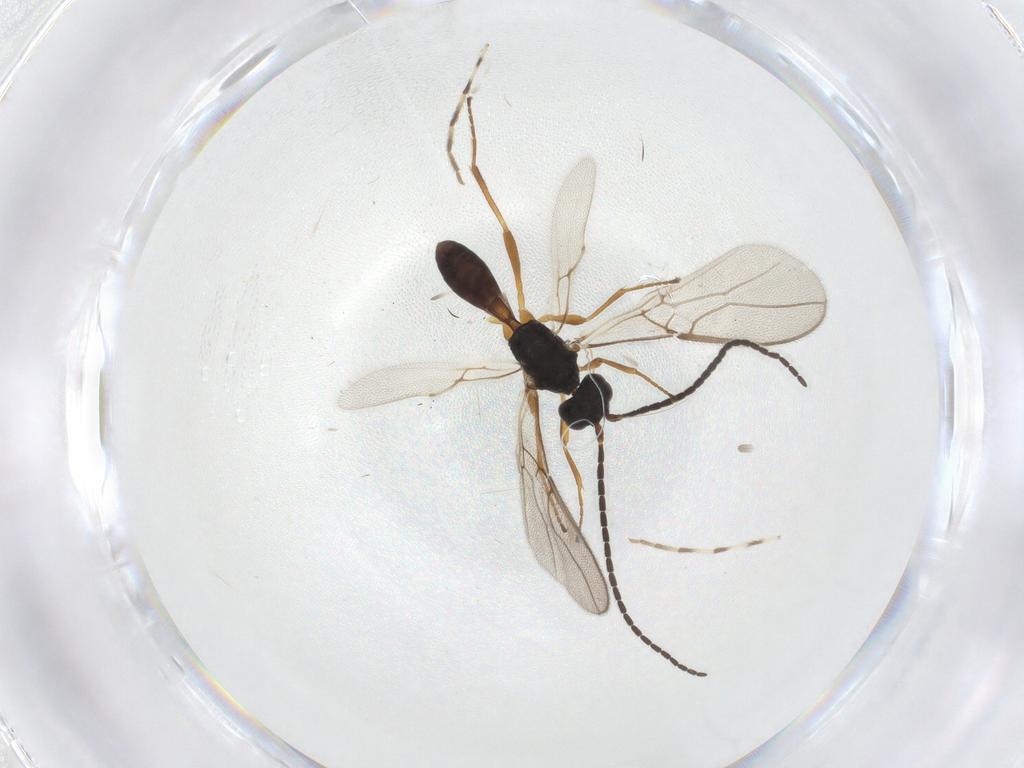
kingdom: Animalia
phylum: Arthropoda
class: Insecta
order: Hymenoptera
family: Braconidae
